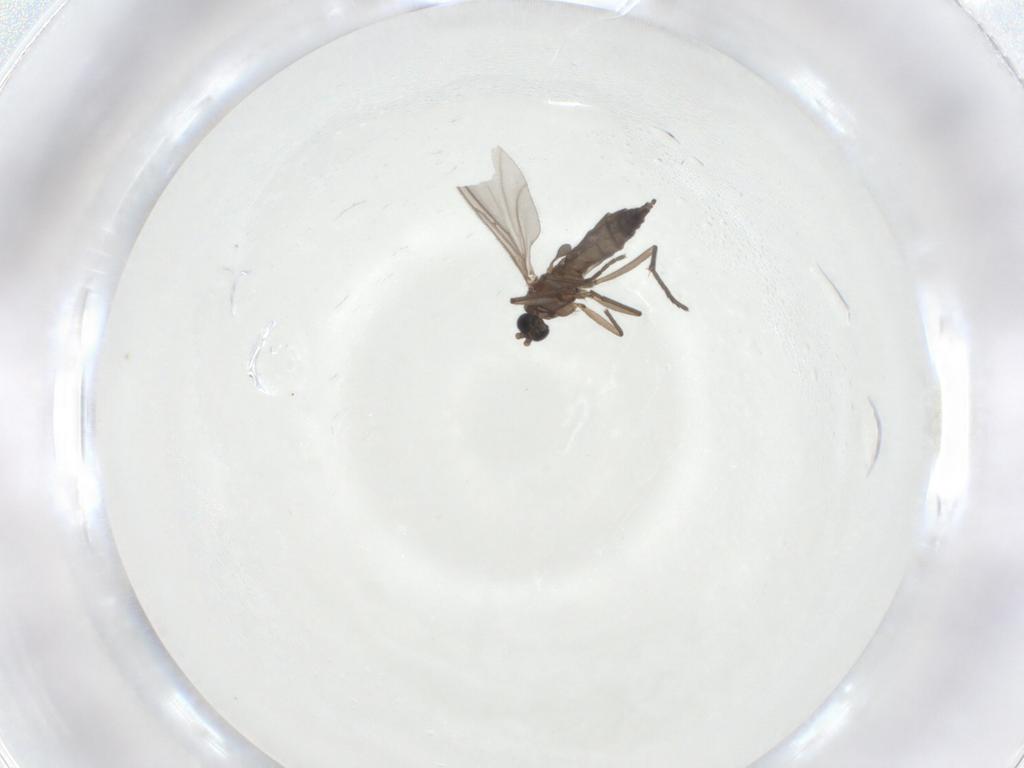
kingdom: Animalia
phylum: Arthropoda
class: Insecta
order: Diptera
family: Sciaridae
